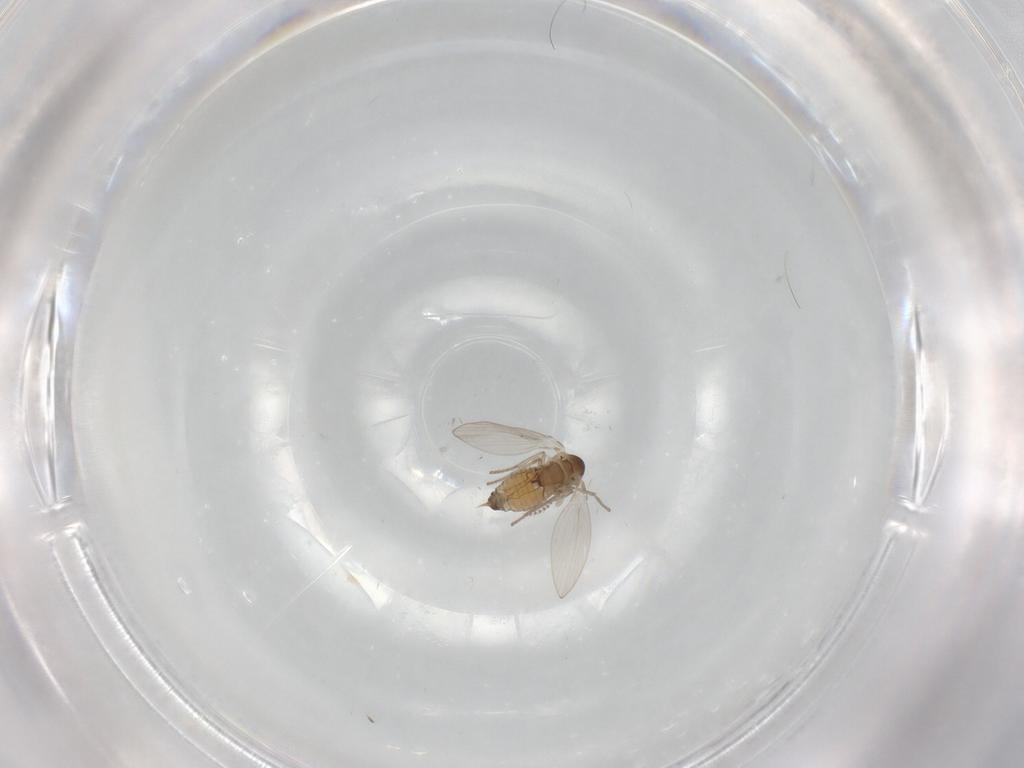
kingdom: Animalia
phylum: Arthropoda
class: Insecta
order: Diptera
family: Psychodidae
